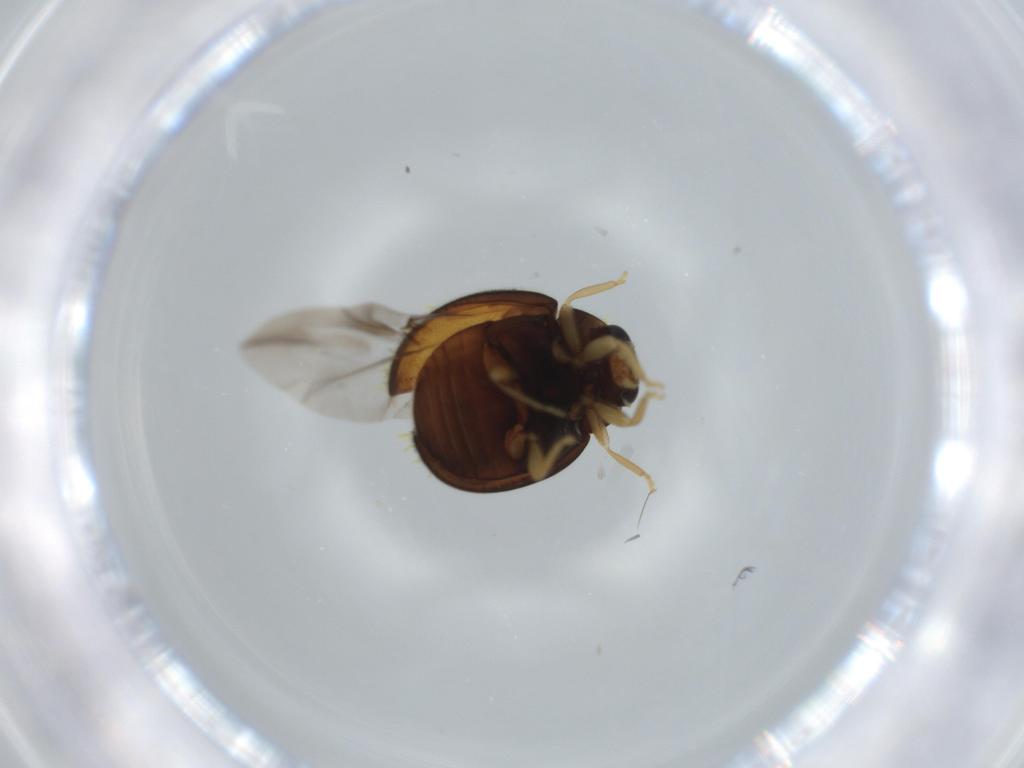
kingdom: Animalia
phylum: Arthropoda
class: Insecta
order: Coleoptera
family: Coccinellidae
